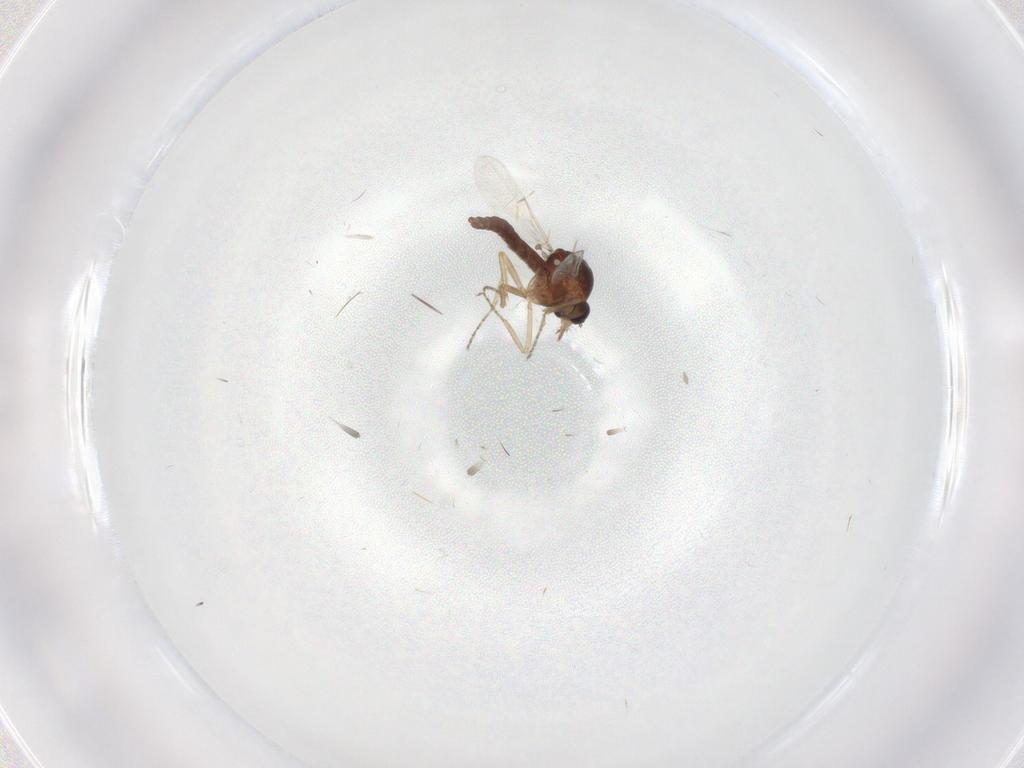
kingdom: Animalia
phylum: Arthropoda
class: Insecta
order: Diptera
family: Ceratopogonidae
